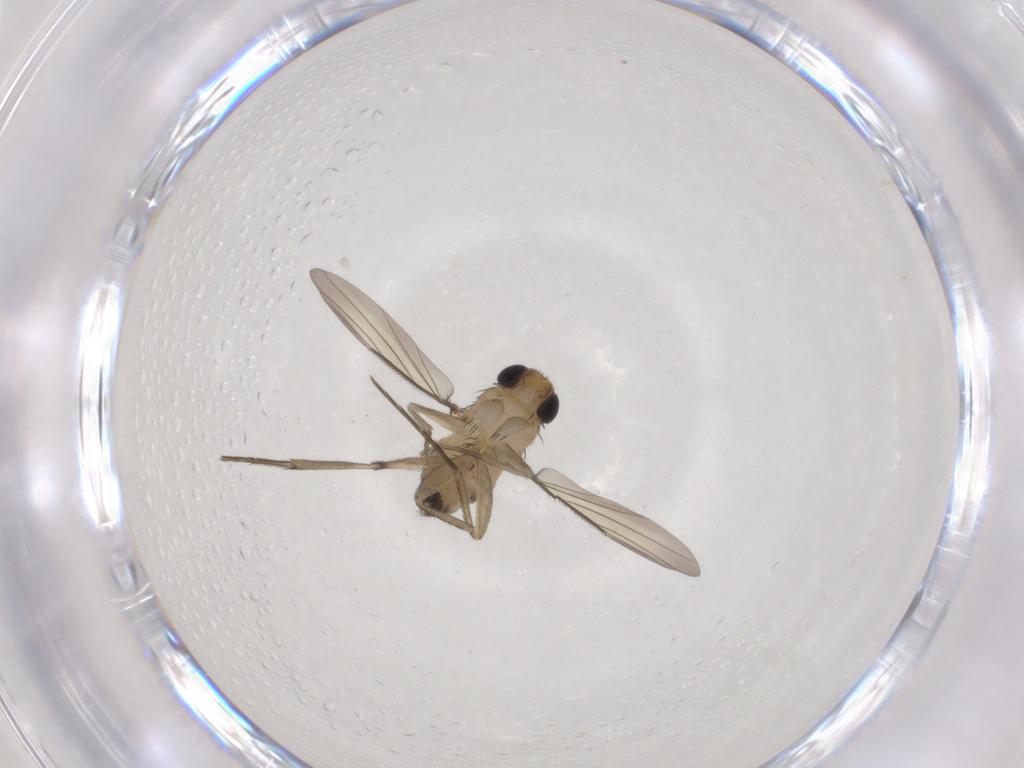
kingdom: Animalia
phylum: Arthropoda
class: Insecta
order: Diptera
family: Phoridae
